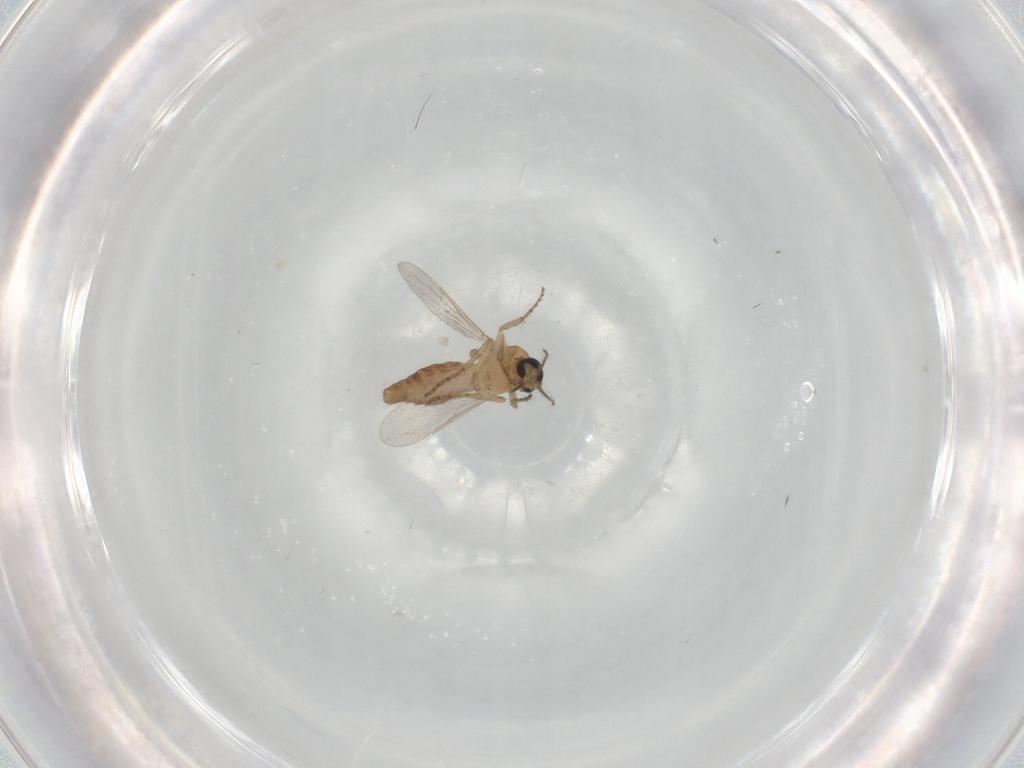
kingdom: Animalia
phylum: Arthropoda
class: Insecta
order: Diptera
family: Ceratopogonidae
